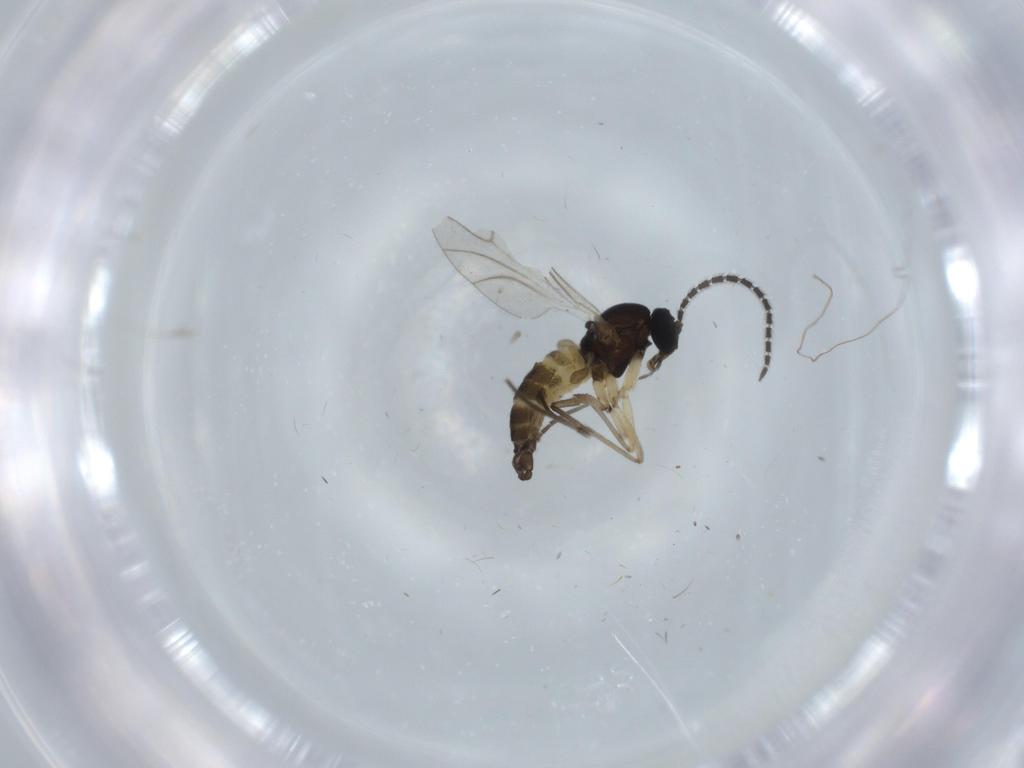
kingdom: Animalia
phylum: Arthropoda
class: Insecta
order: Diptera
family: Sciaridae
